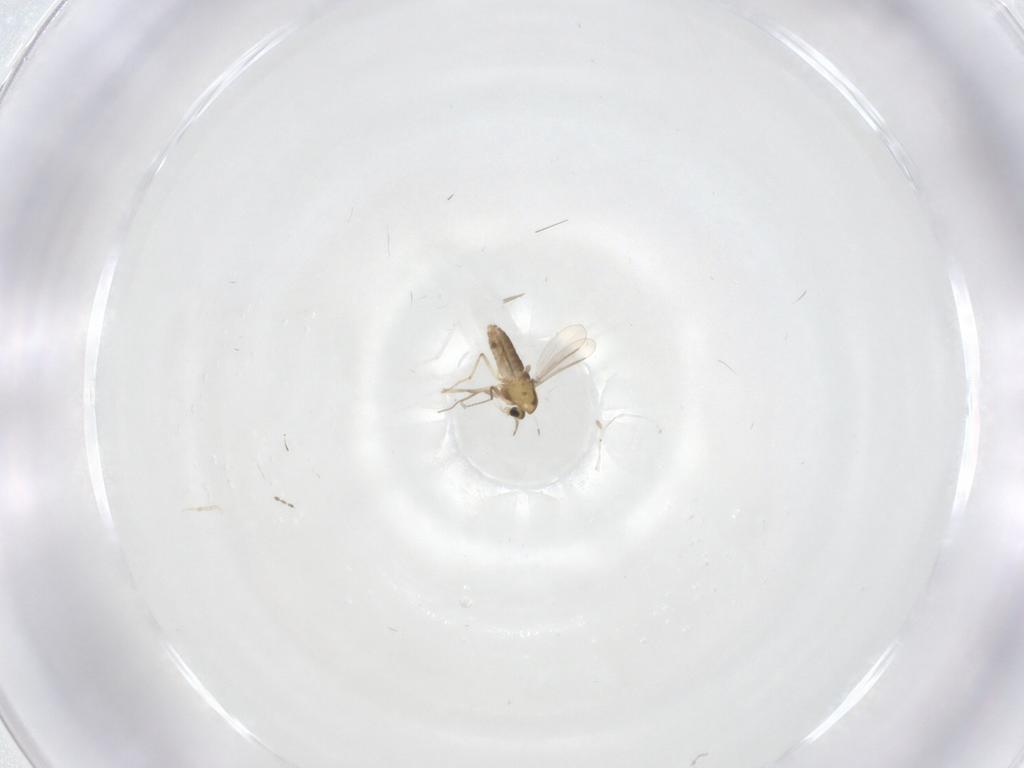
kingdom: Animalia
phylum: Arthropoda
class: Insecta
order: Diptera
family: Chironomidae
